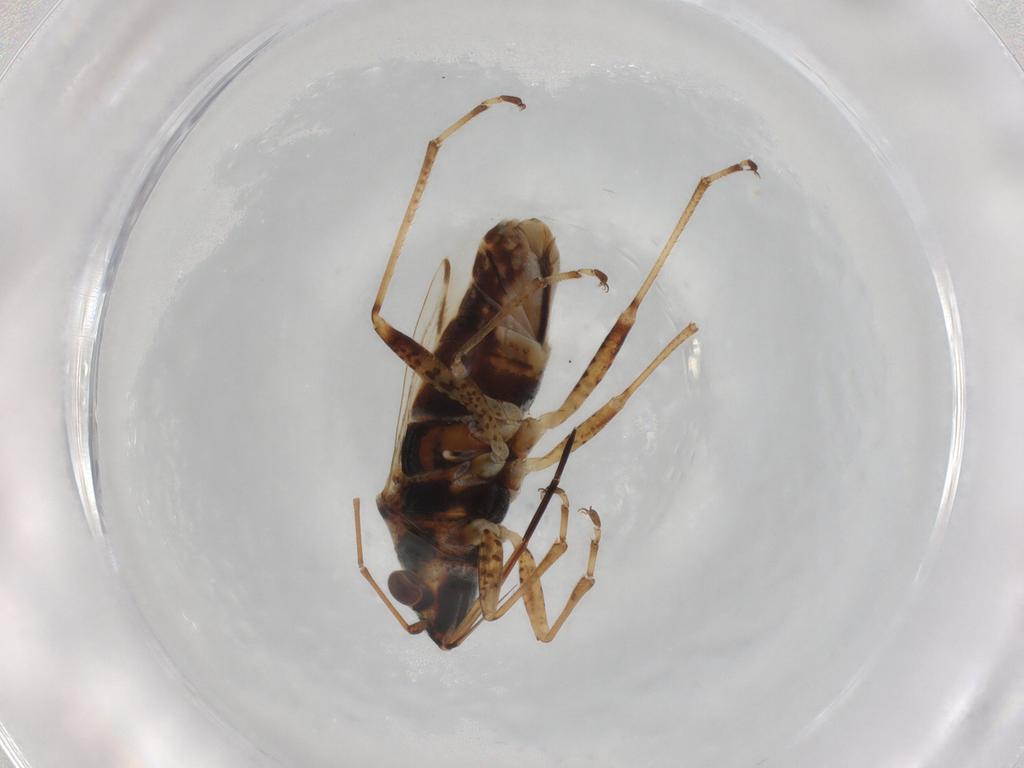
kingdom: Animalia
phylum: Arthropoda
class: Insecta
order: Hemiptera
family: Lygaeidae
